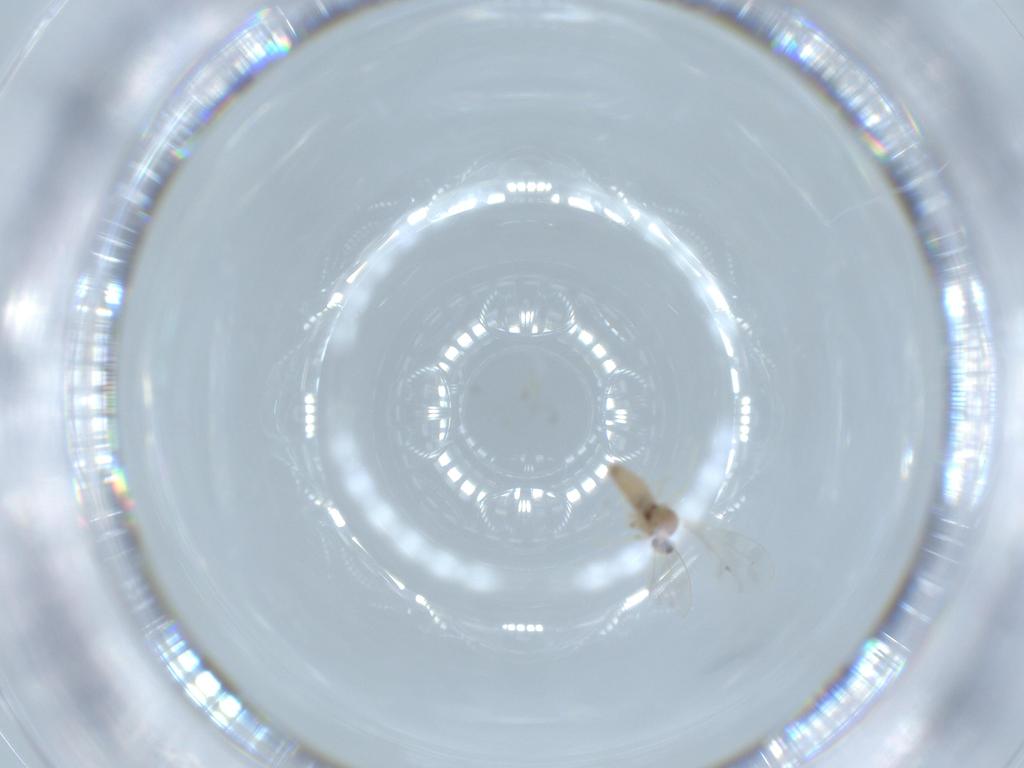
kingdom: Animalia
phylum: Arthropoda
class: Insecta
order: Diptera
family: Cecidomyiidae
